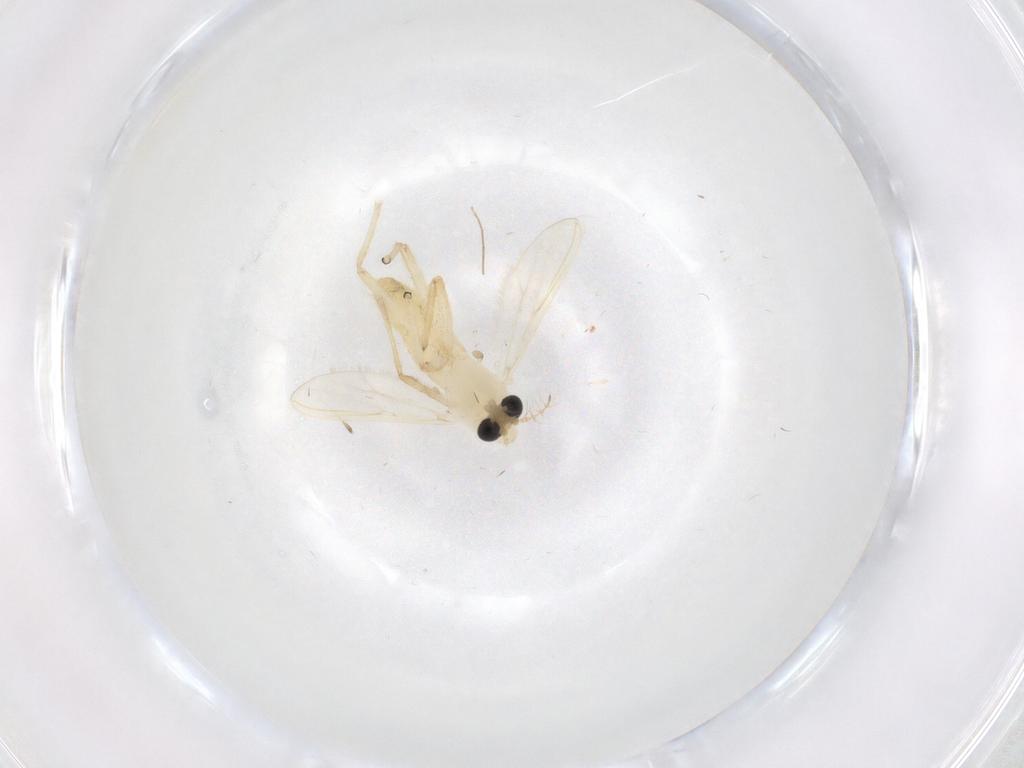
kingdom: Animalia
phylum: Arthropoda
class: Insecta
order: Diptera
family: Chironomidae
